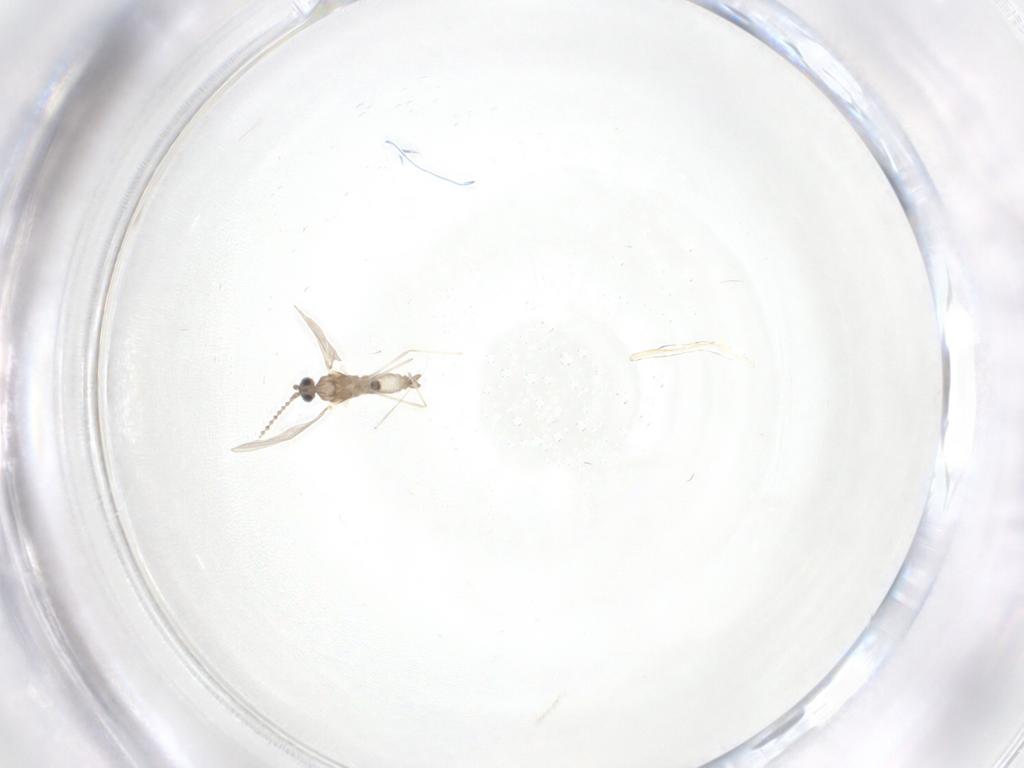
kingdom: Animalia
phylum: Arthropoda
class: Insecta
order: Diptera
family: Cecidomyiidae
